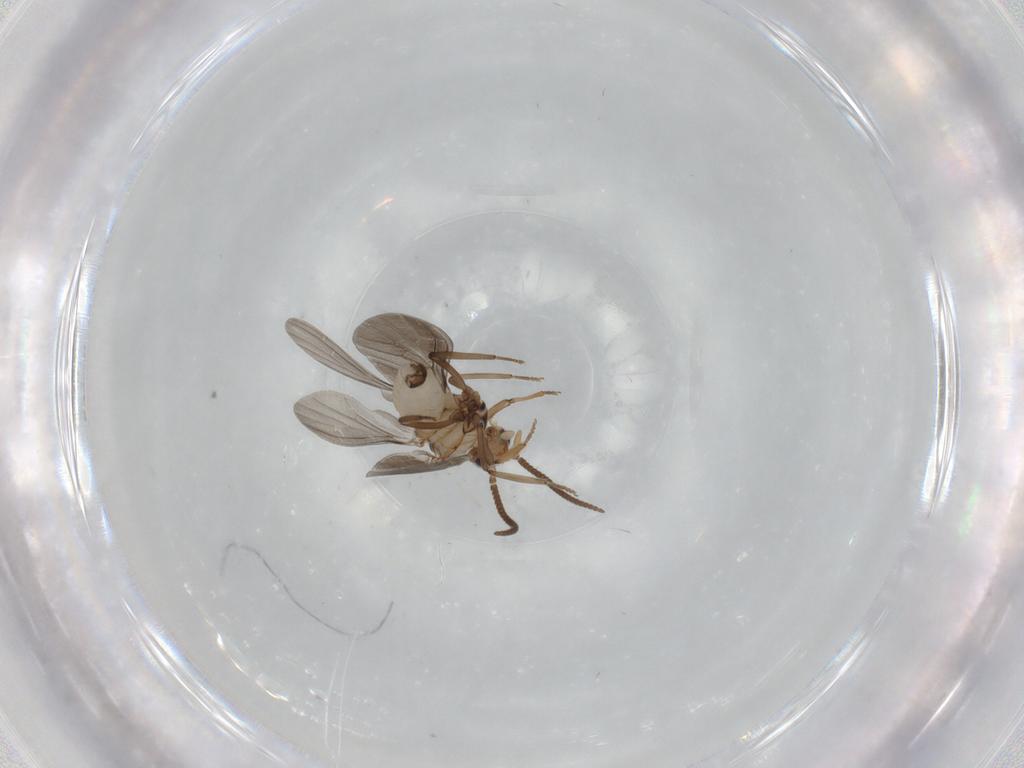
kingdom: Animalia
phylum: Arthropoda
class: Insecta
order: Neuroptera
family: Coniopterygidae
